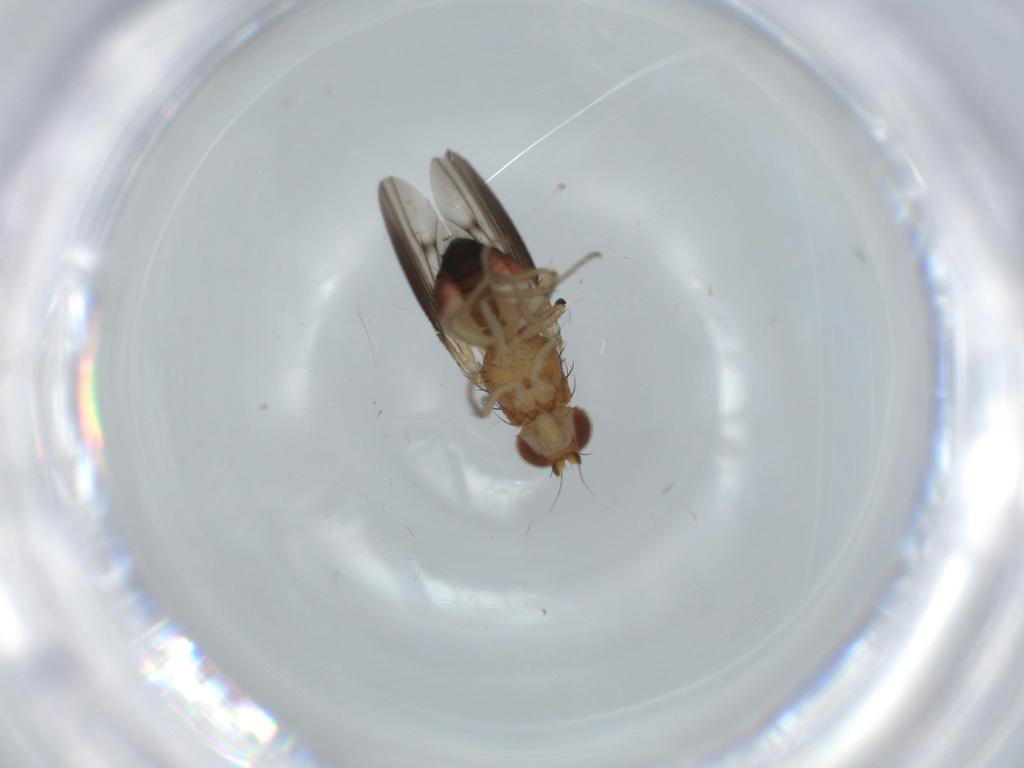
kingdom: Animalia
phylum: Arthropoda
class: Insecta
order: Diptera
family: Heleomyzidae
